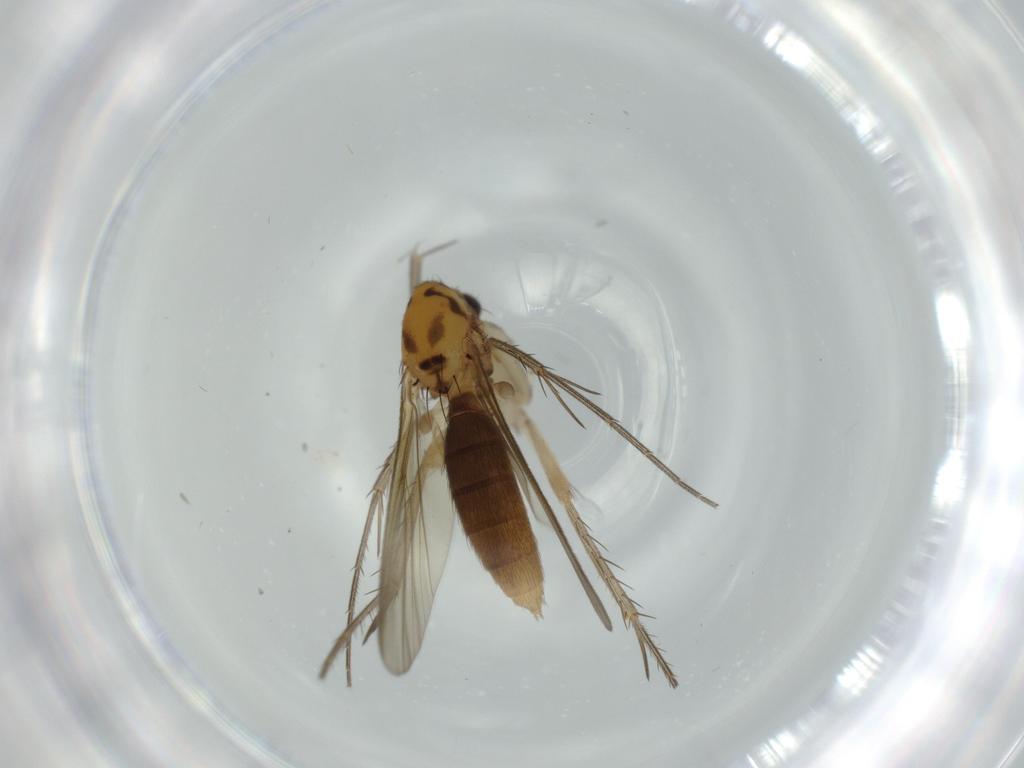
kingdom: Animalia
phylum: Arthropoda
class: Insecta
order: Diptera
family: Mycetophilidae
